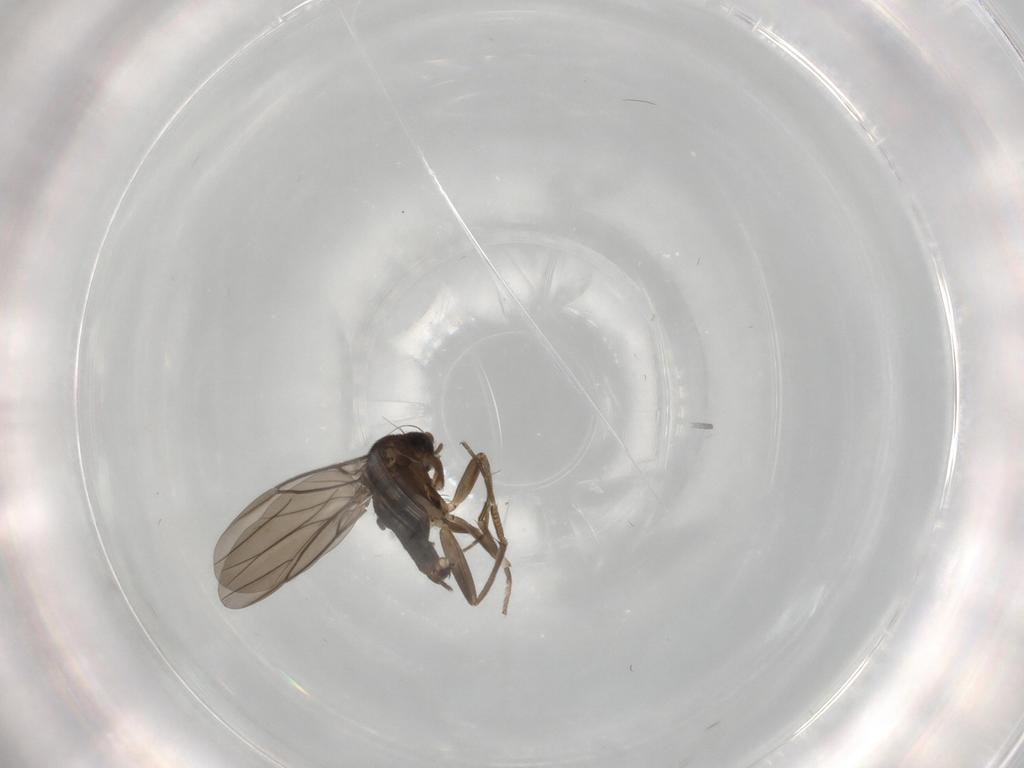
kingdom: Animalia
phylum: Arthropoda
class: Insecta
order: Diptera
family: Phoridae
